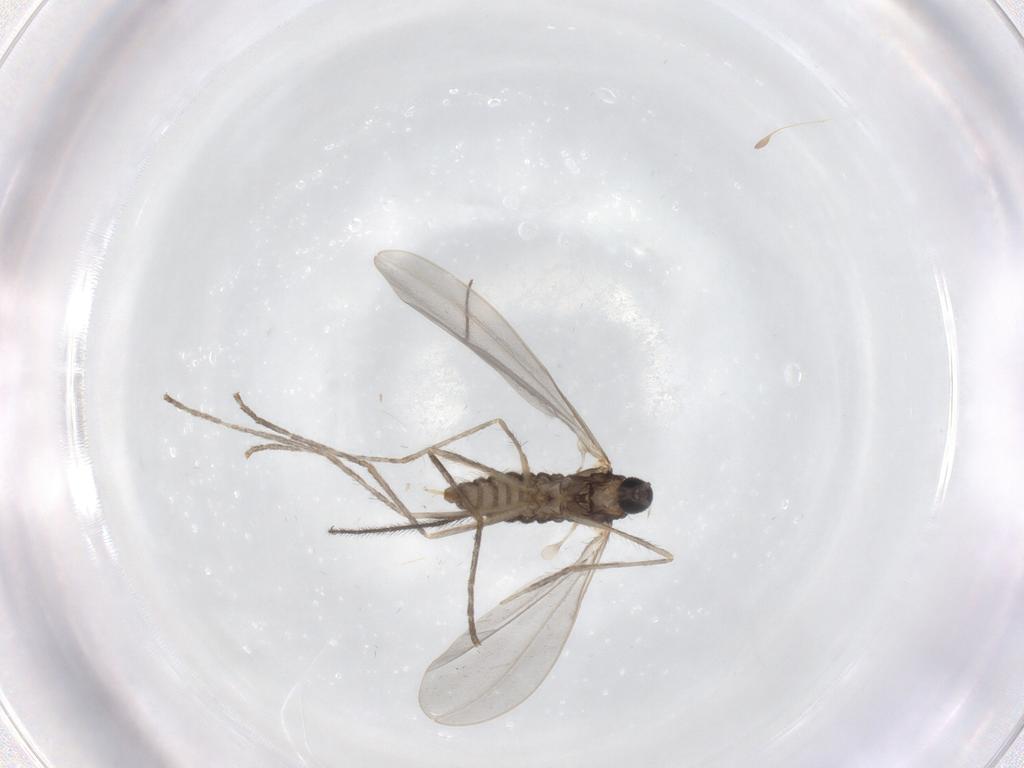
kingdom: Animalia
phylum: Arthropoda
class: Insecta
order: Diptera
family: Cecidomyiidae
